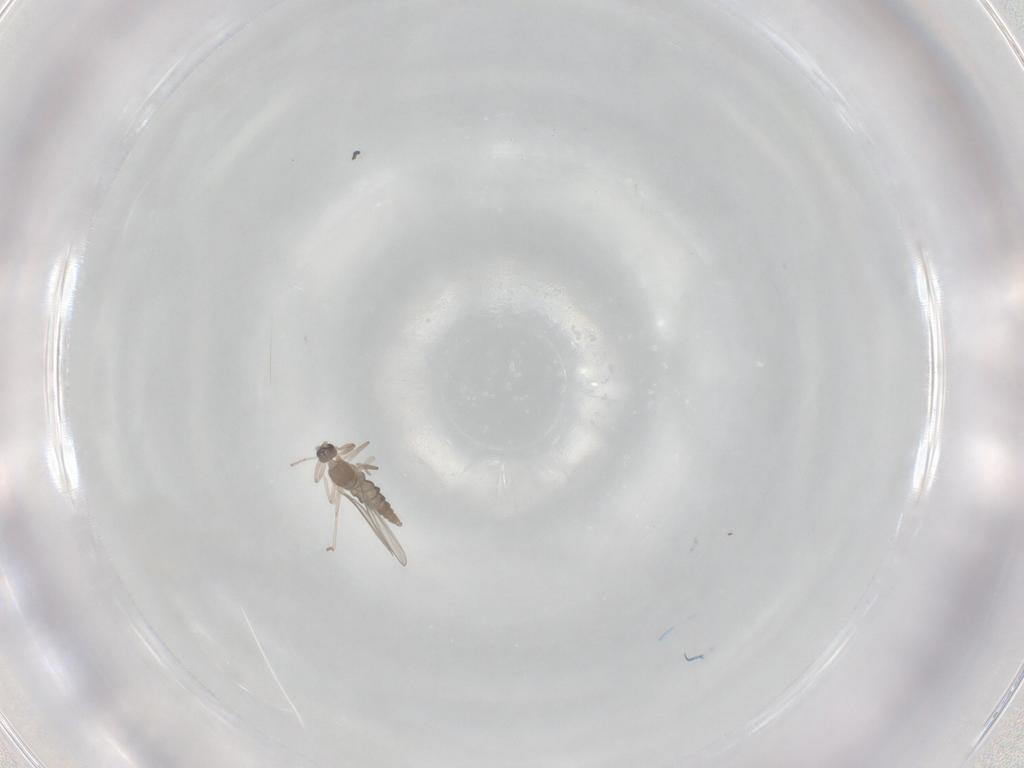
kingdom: Animalia
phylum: Arthropoda
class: Insecta
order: Diptera
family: Cecidomyiidae
